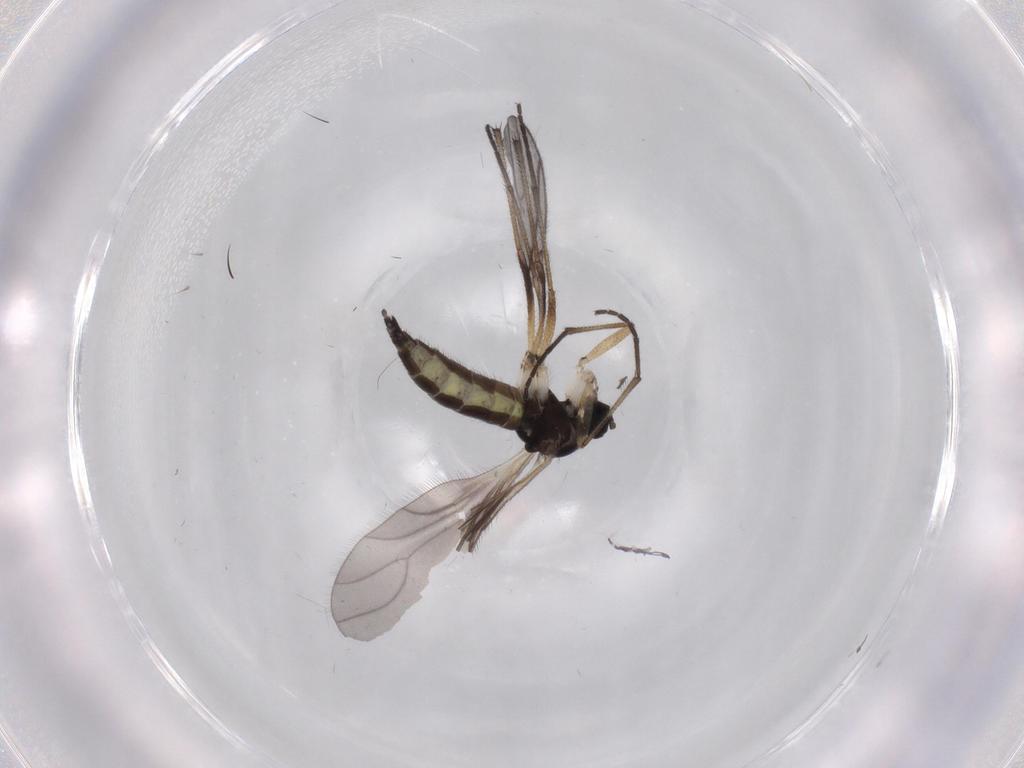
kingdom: Animalia
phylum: Arthropoda
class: Insecta
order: Diptera
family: Sciaridae
